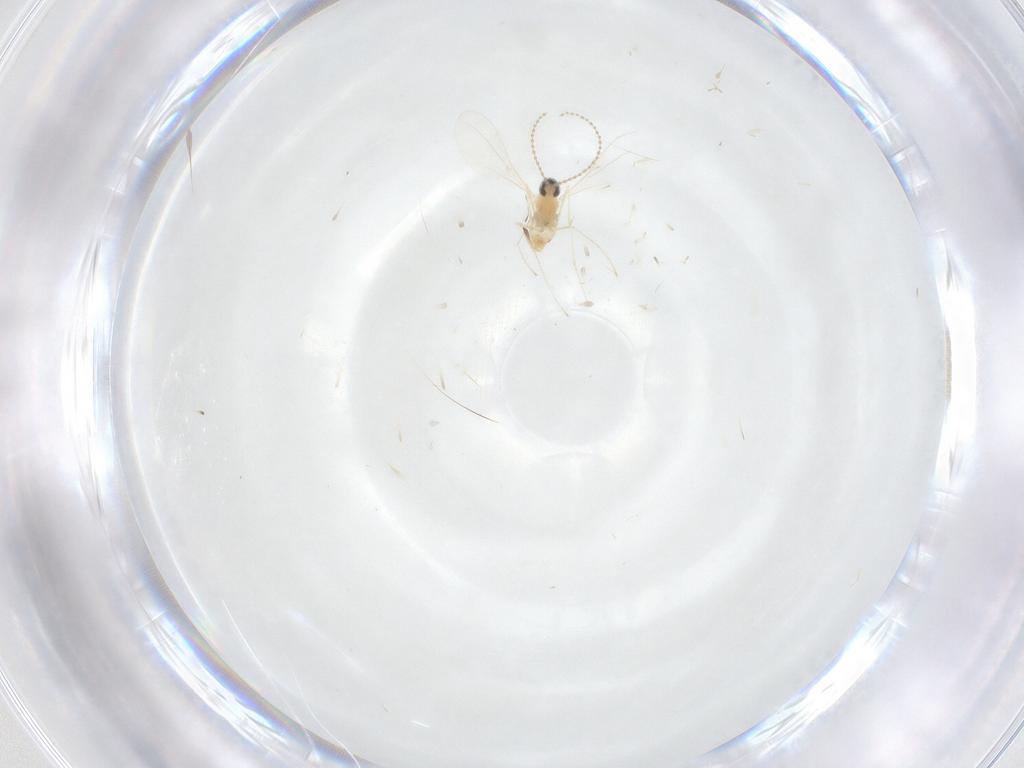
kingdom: Animalia
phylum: Arthropoda
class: Insecta
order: Diptera
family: Cecidomyiidae
